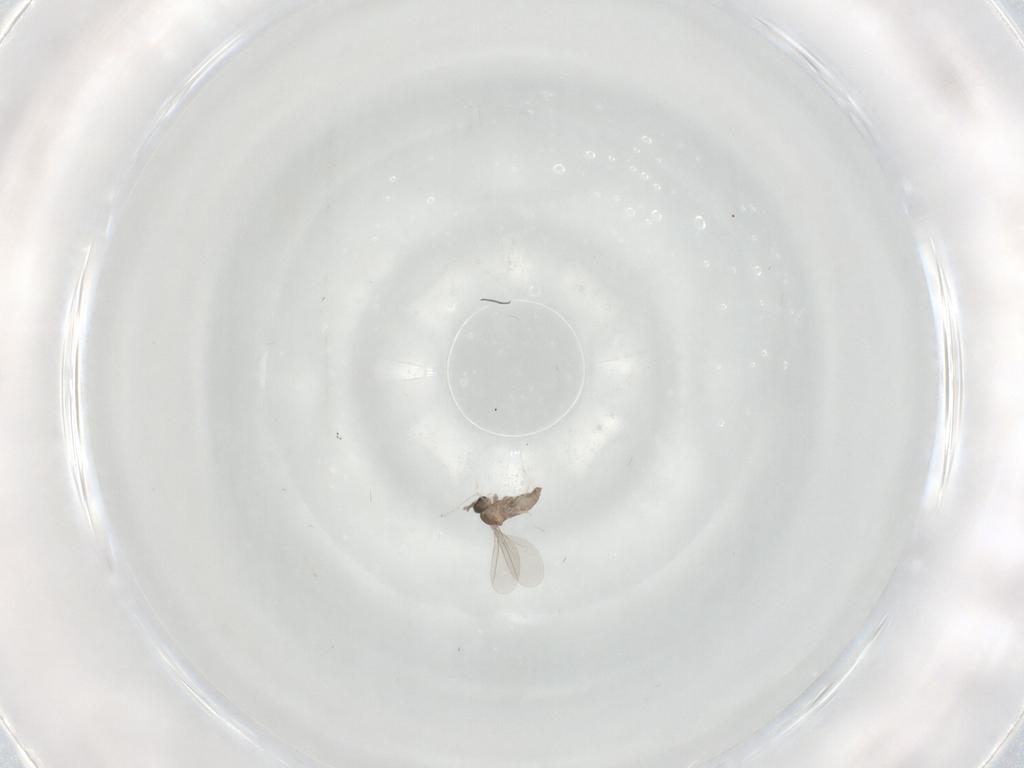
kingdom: Animalia
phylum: Arthropoda
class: Insecta
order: Diptera
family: Cecidomyiidae
